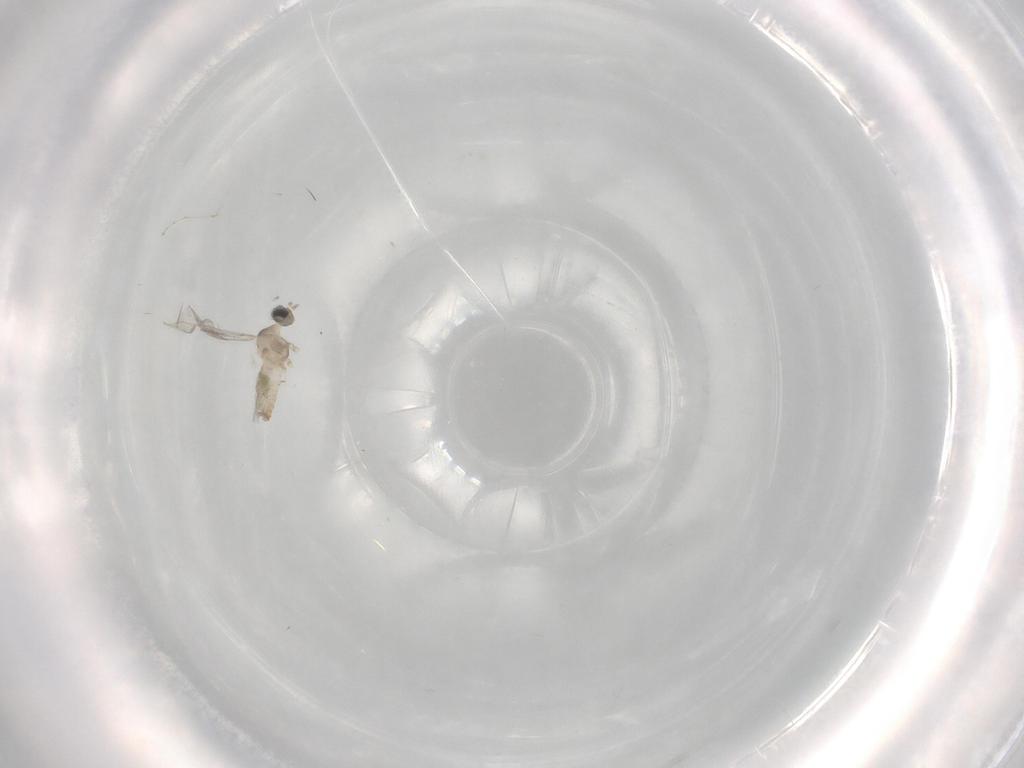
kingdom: Animalia
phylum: Arthropoda
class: Insecta
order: Diptera
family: Cecidomyiidae
